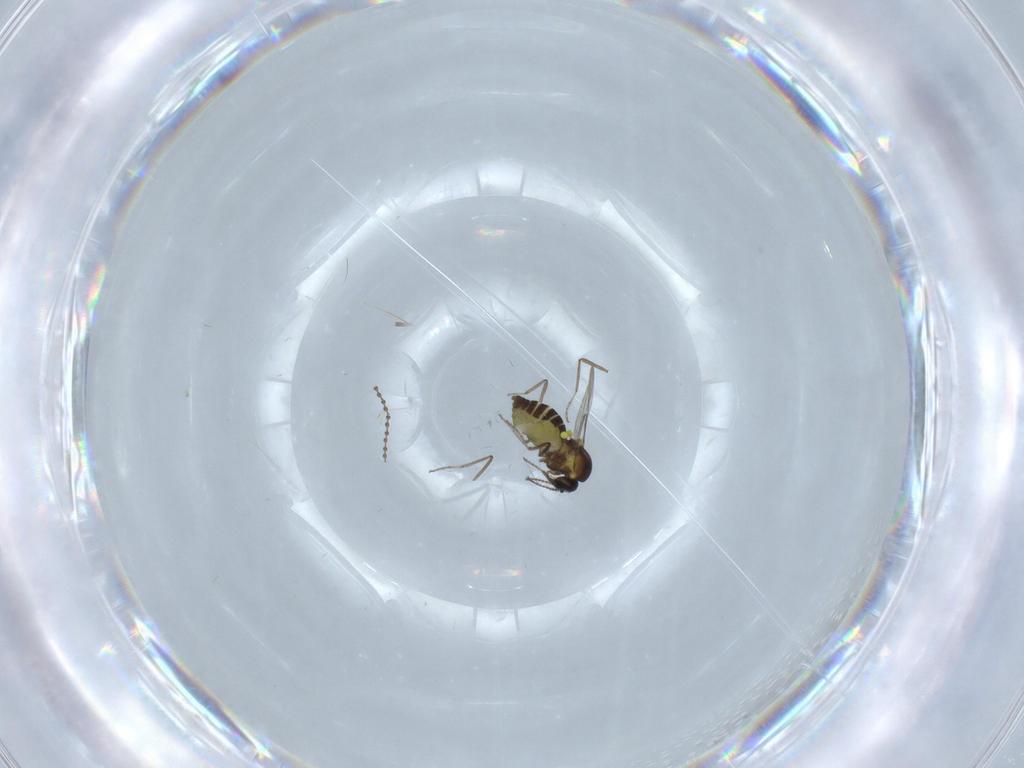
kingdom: Animalia
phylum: Arthropoda
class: Insecta
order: Diptera
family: Ceratopogonidae
